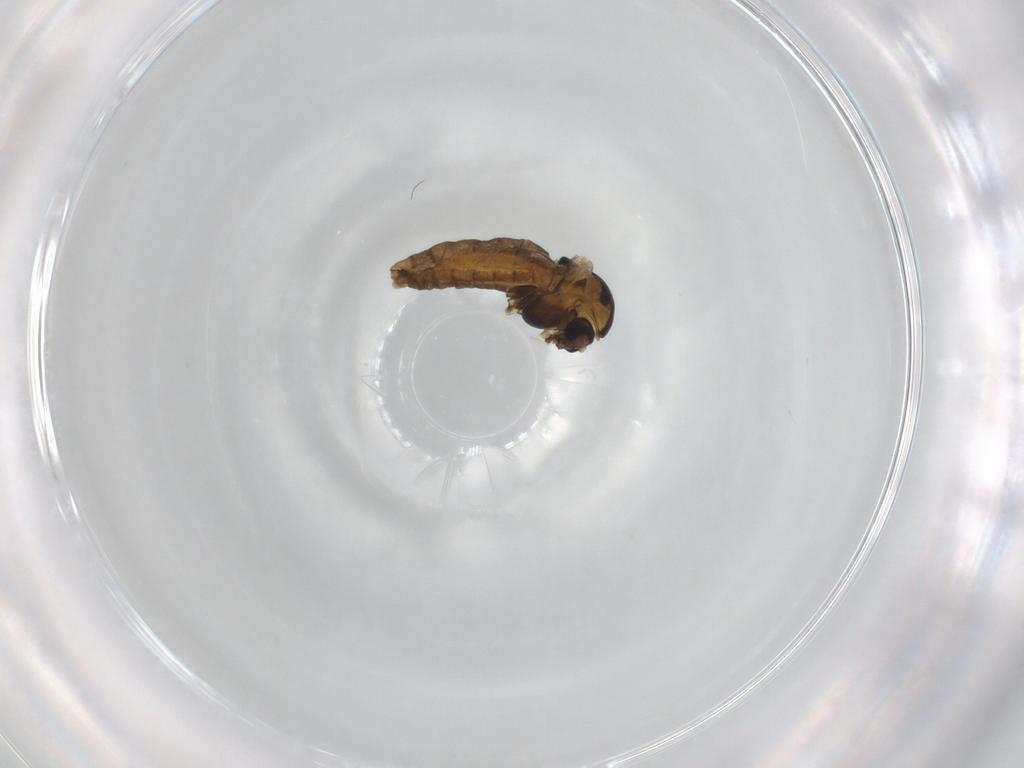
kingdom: Animalia
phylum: Arthropoda
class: Insecta
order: Diptera
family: Chironomidae
